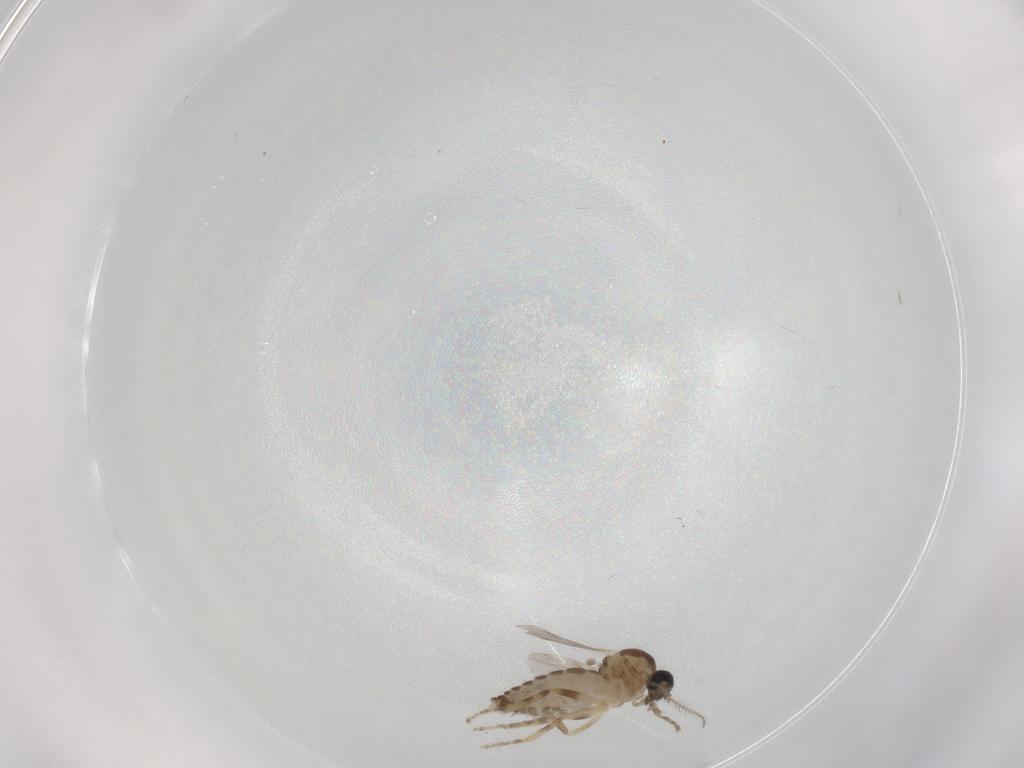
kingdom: Animalia
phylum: Arthropoda
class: Insecta
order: Diptera
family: Ceratopogonidae
